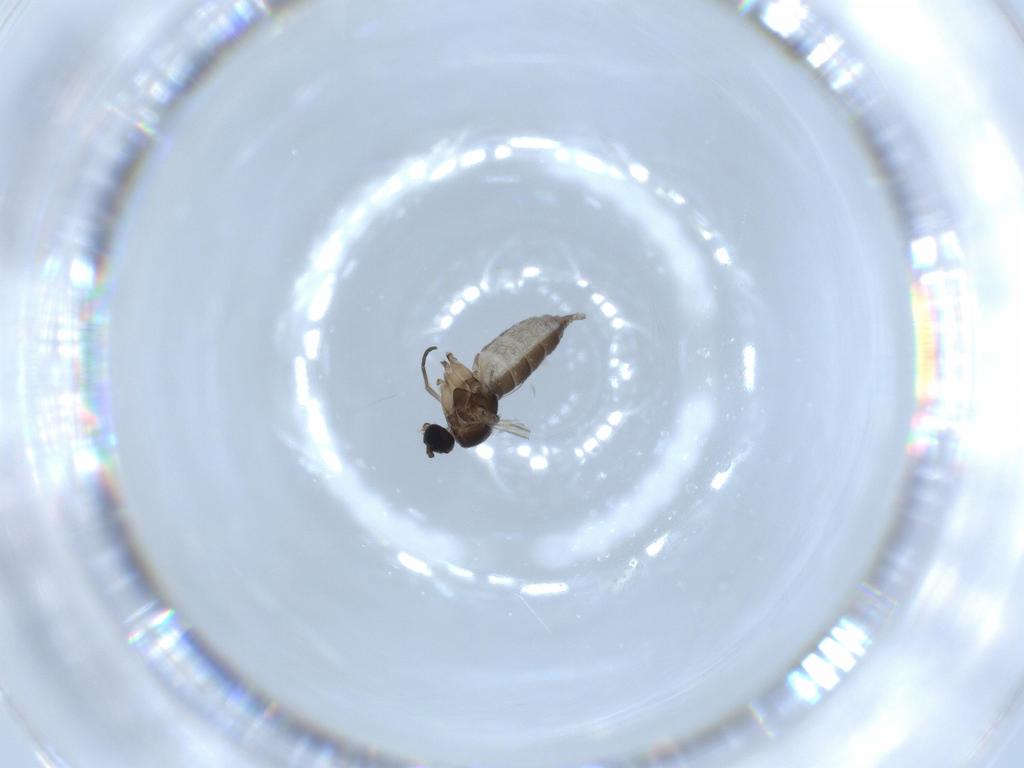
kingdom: Animalia
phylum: Arthropoda
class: Insecta
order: Diptera
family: Sciaridae
